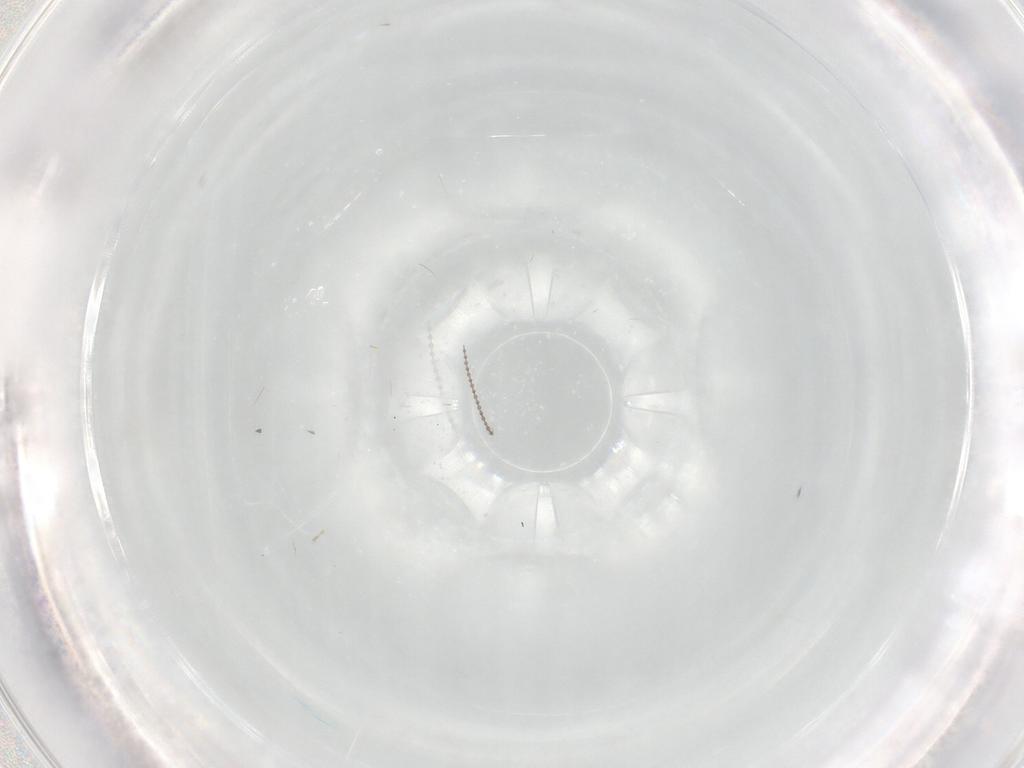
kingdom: Animalia
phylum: Arthropoda
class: Insecta
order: Diptera
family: Cecidomyiidae
